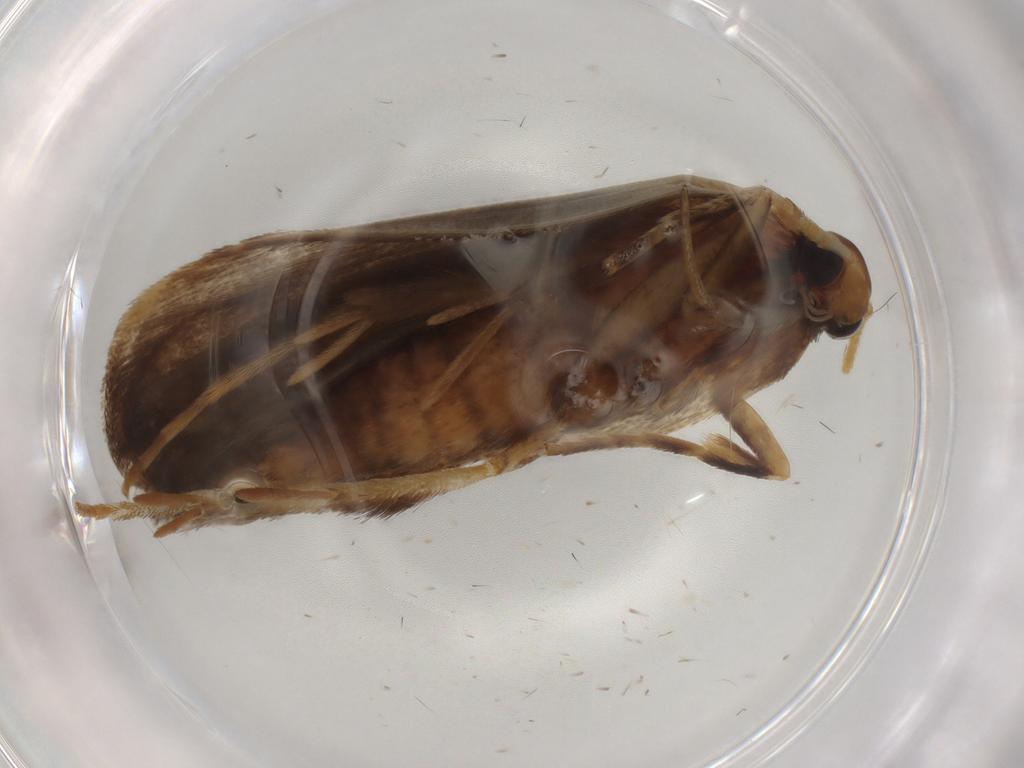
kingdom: Animalia
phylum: Arthropoda
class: Insecta
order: Lepidoptera
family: Lecithoceridae
